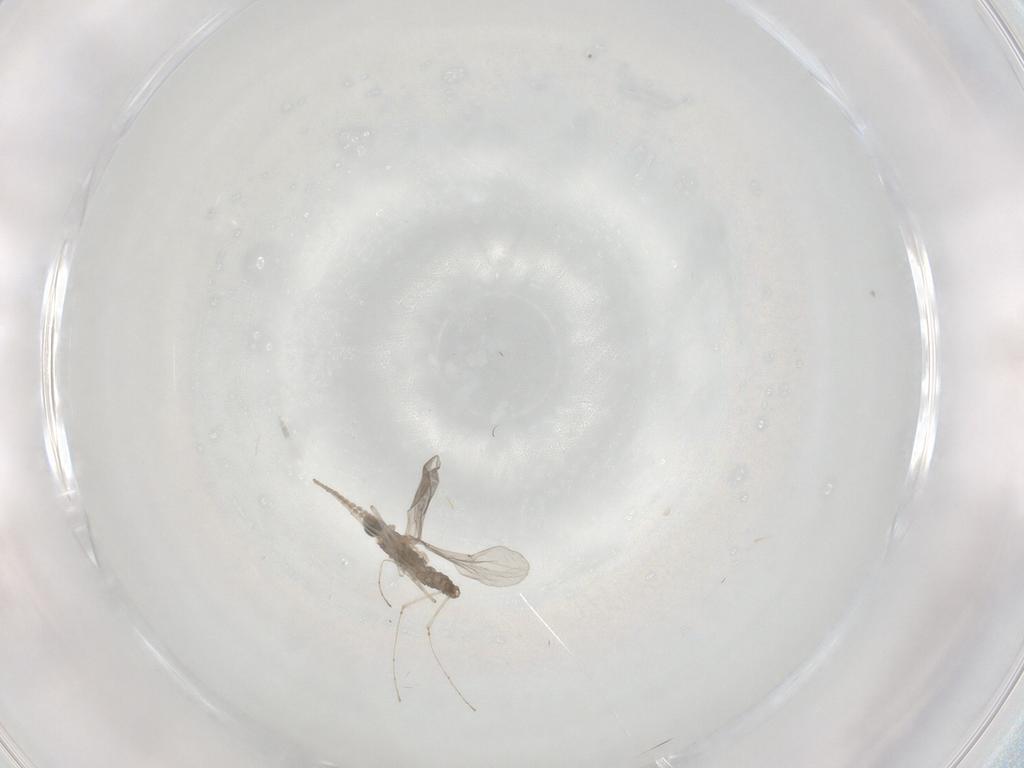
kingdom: Animalia
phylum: Arthropoda
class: Insecta
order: Diptera
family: Cecidomyiidae
